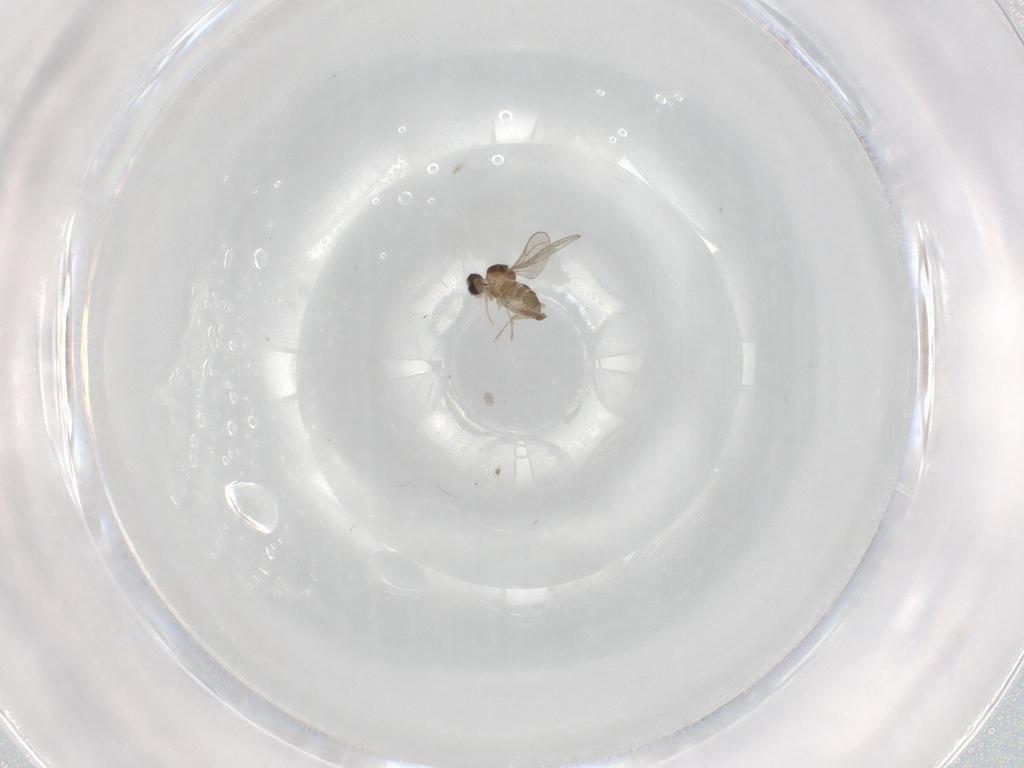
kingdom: Animalia
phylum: Arthropoda
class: Insecta
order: Diptera
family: Cecidomyiidae
